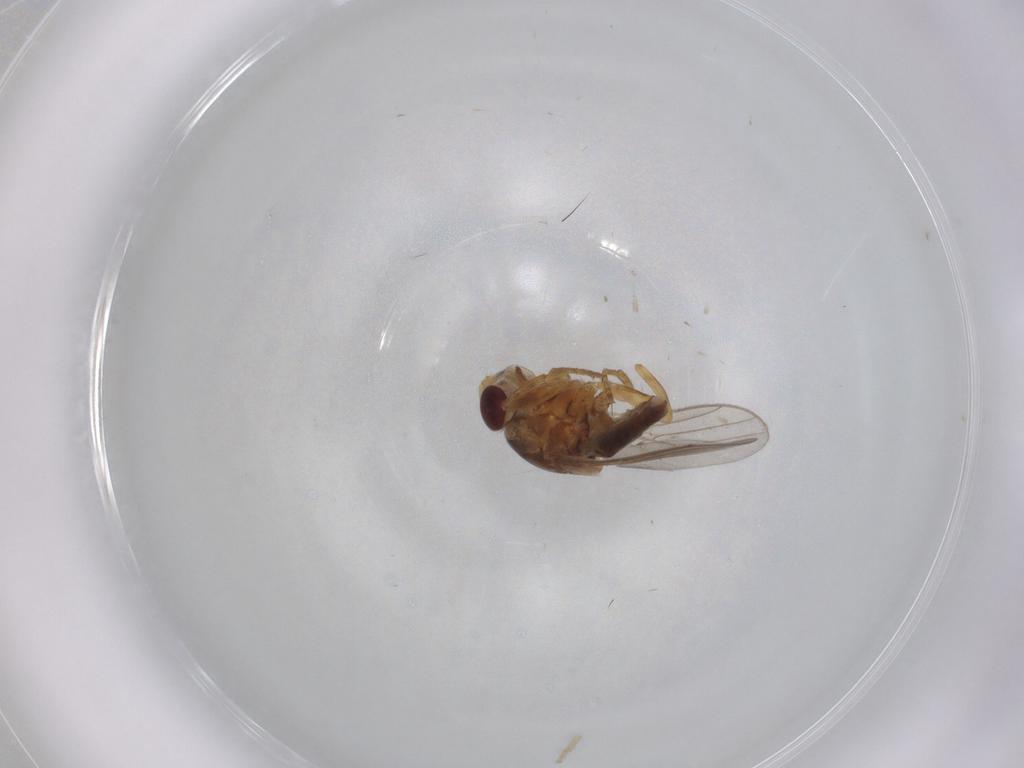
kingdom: Animalia
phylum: Arthropoda
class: Insecta
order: Diptera
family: Chloropidae
